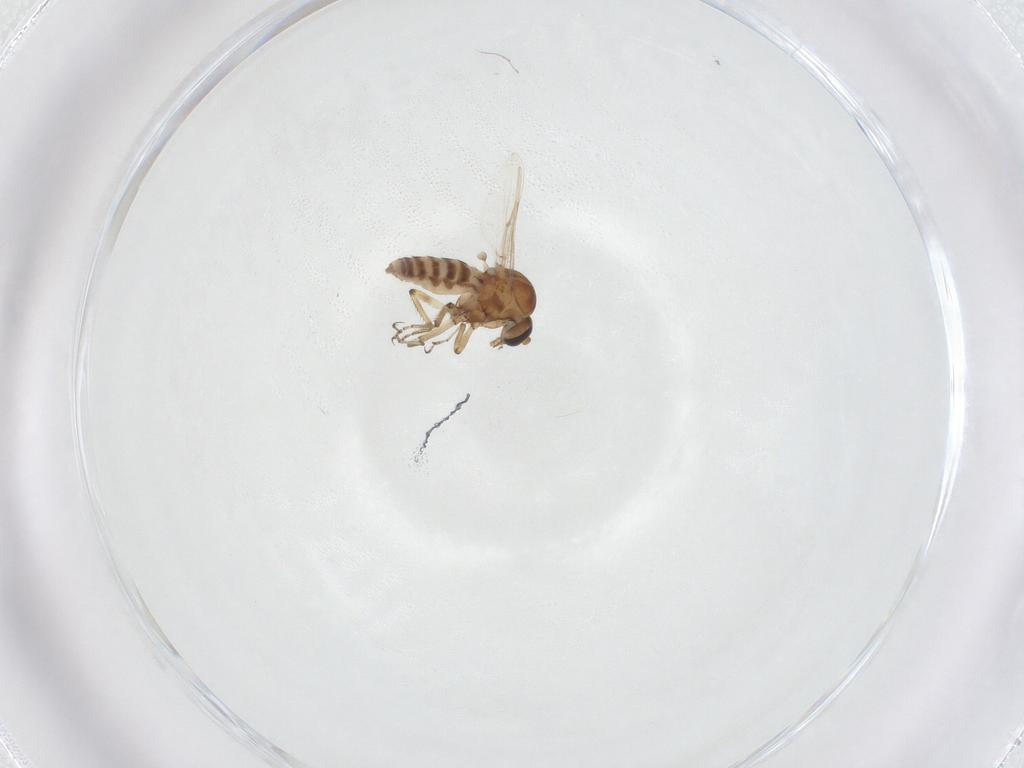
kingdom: Animalia
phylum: Arthropoda
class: Insecta
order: Diptera
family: Ceratopogonidae
